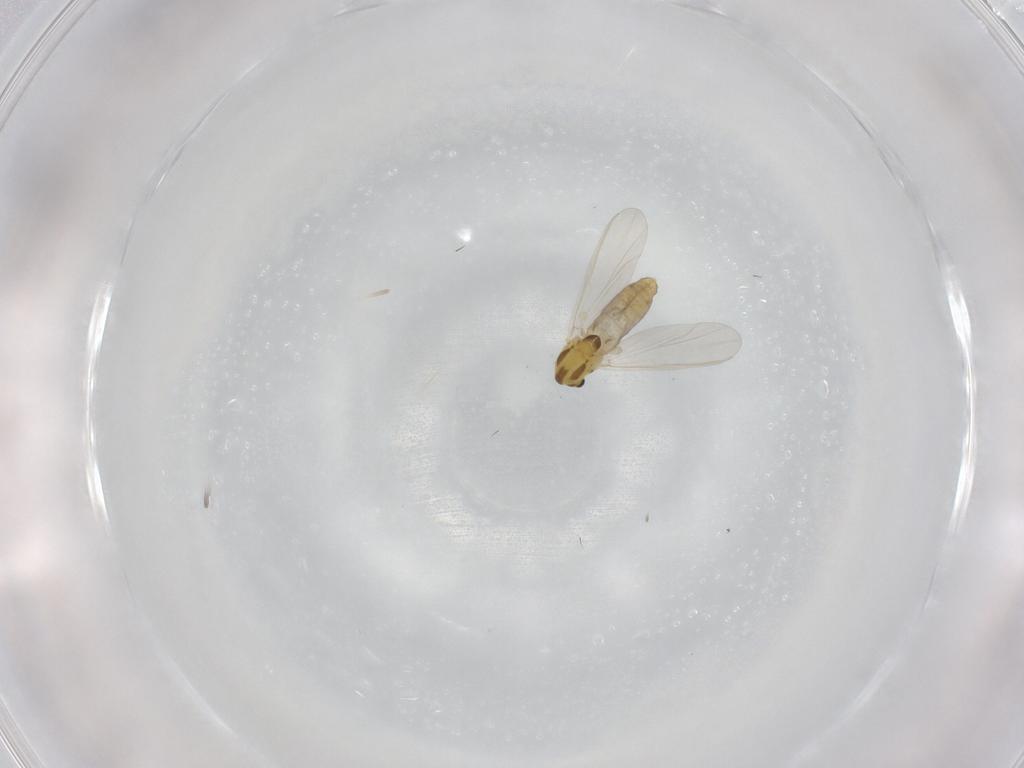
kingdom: Animalia
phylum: Arthropoda
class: Insecta
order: Diptera
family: Chironomidae
